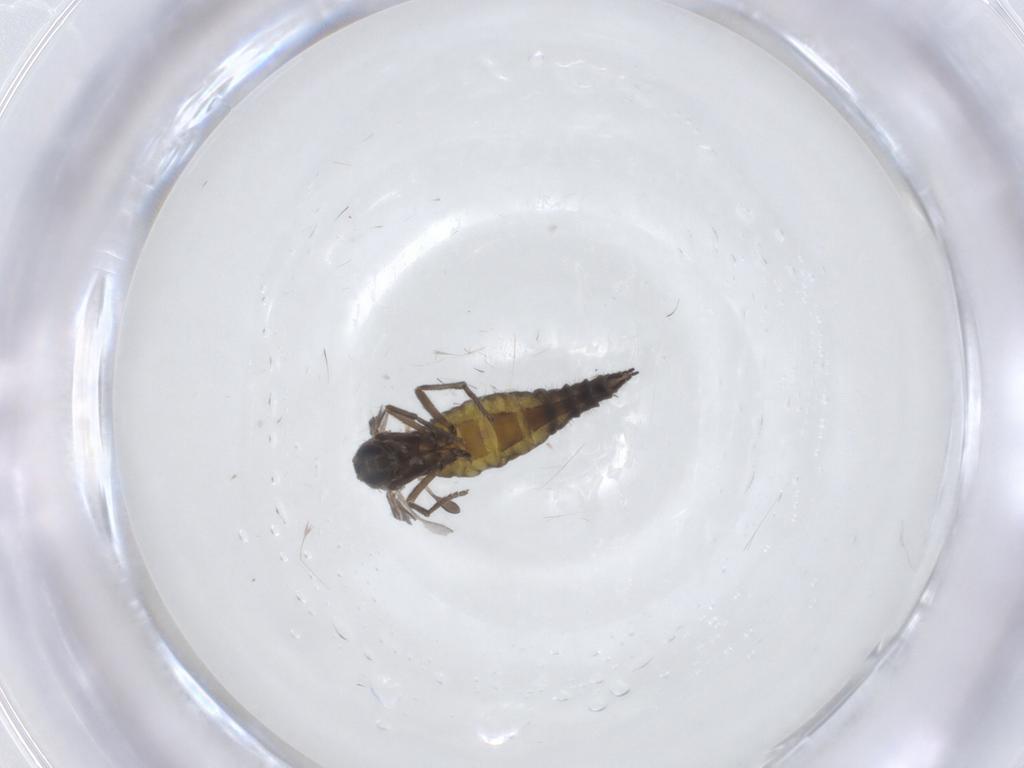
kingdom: Animalia
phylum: Arthropoda
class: Insecta
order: Diptera
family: Sciaridae
